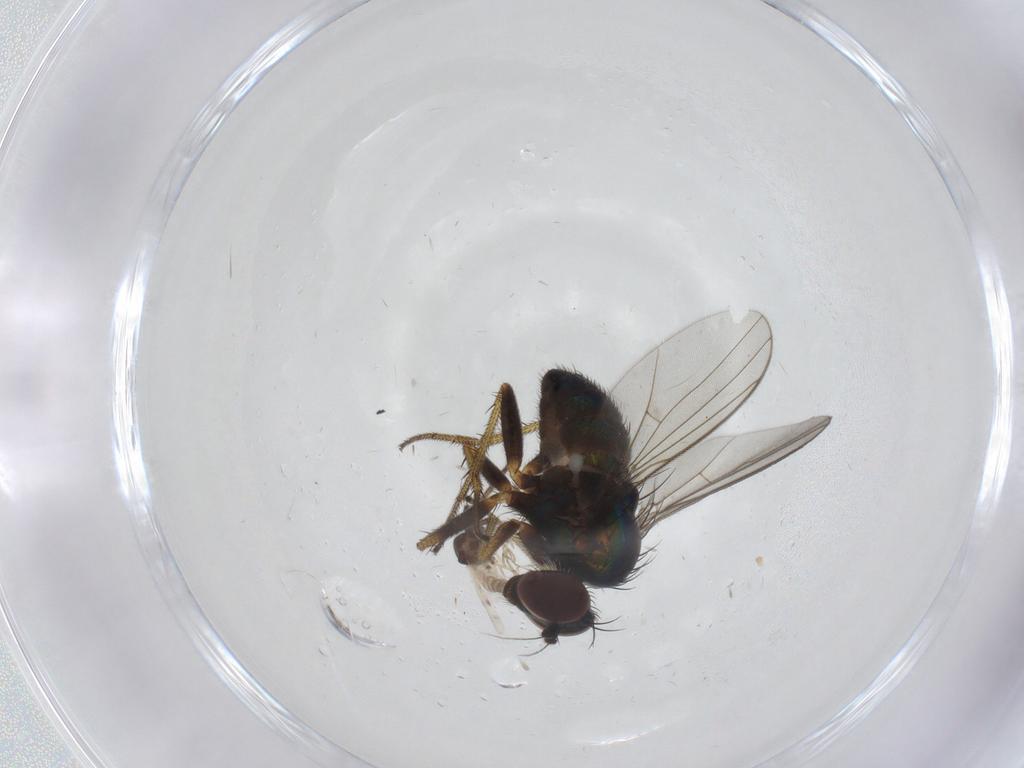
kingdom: Animalia
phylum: Arthropoda
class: Insecta
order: Diptera
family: Dolichopodidae
